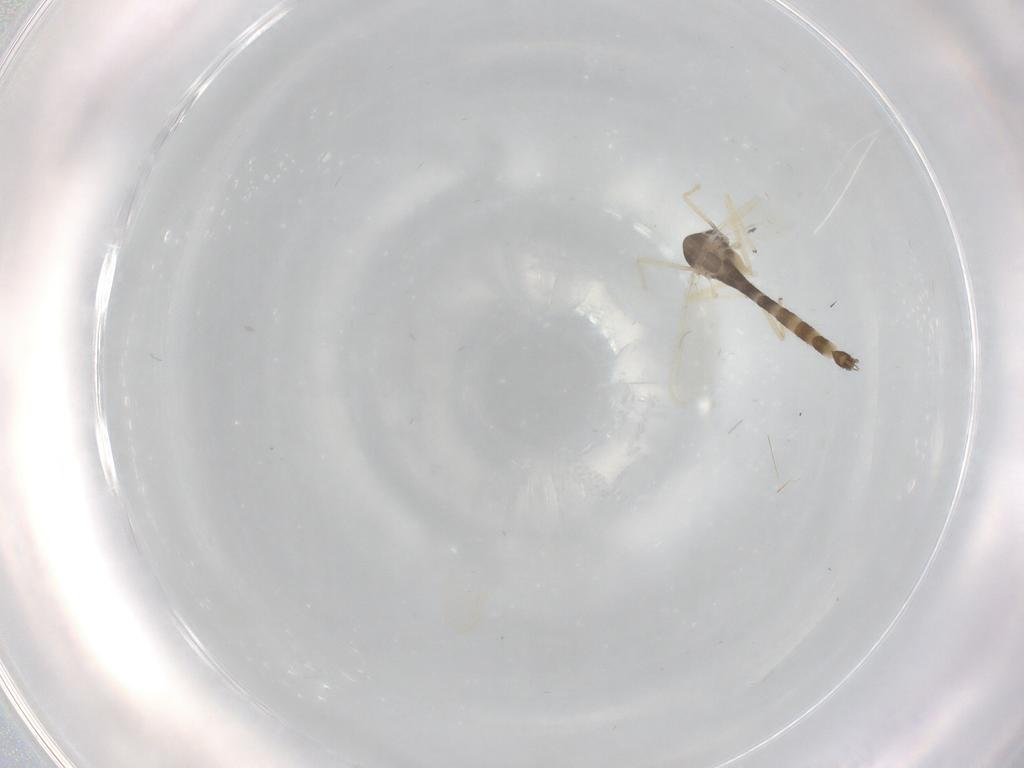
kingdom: Animalia
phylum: Arthropoda
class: Insecta
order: Diptera
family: Chironomidae
